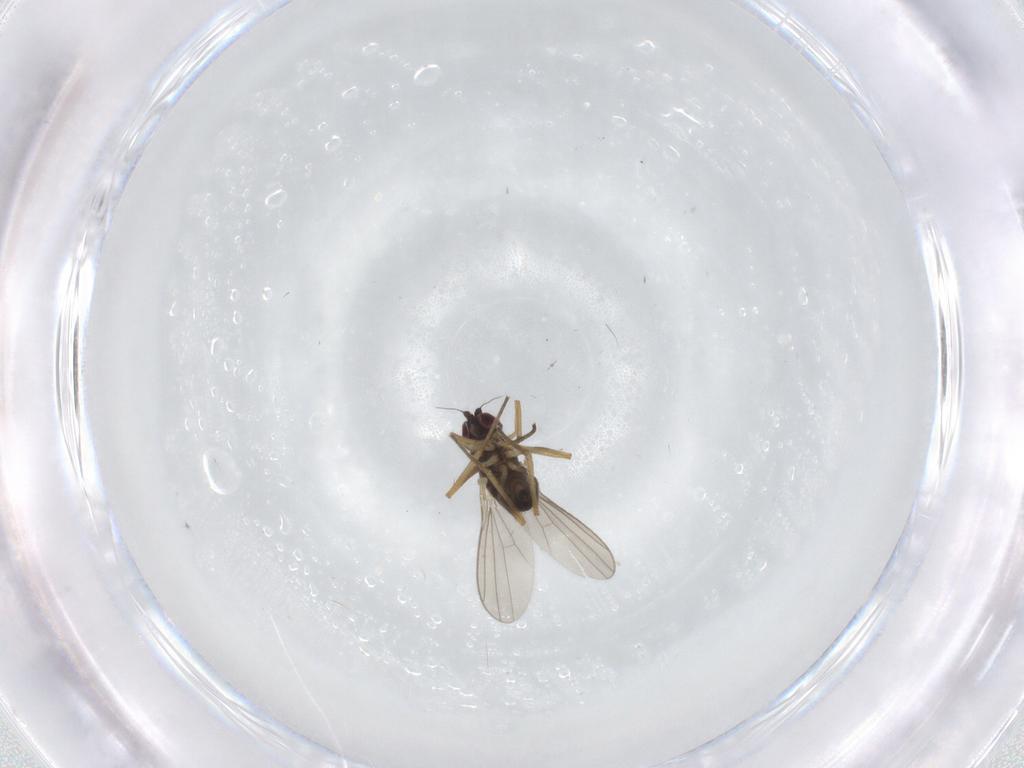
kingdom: Animalia
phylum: Arthropoda
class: Insecta
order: Diptera
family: Dolichopodidae
